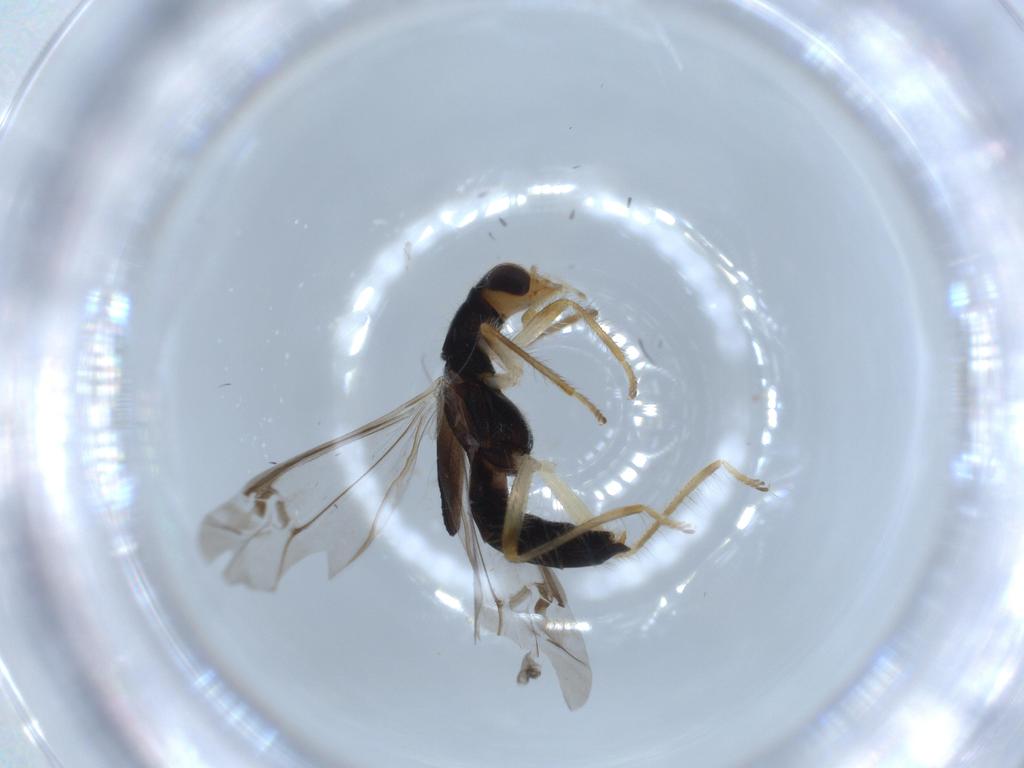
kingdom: Animalia
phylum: Arthropoda
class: Insecta
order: Coleoptera
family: Cleridae
